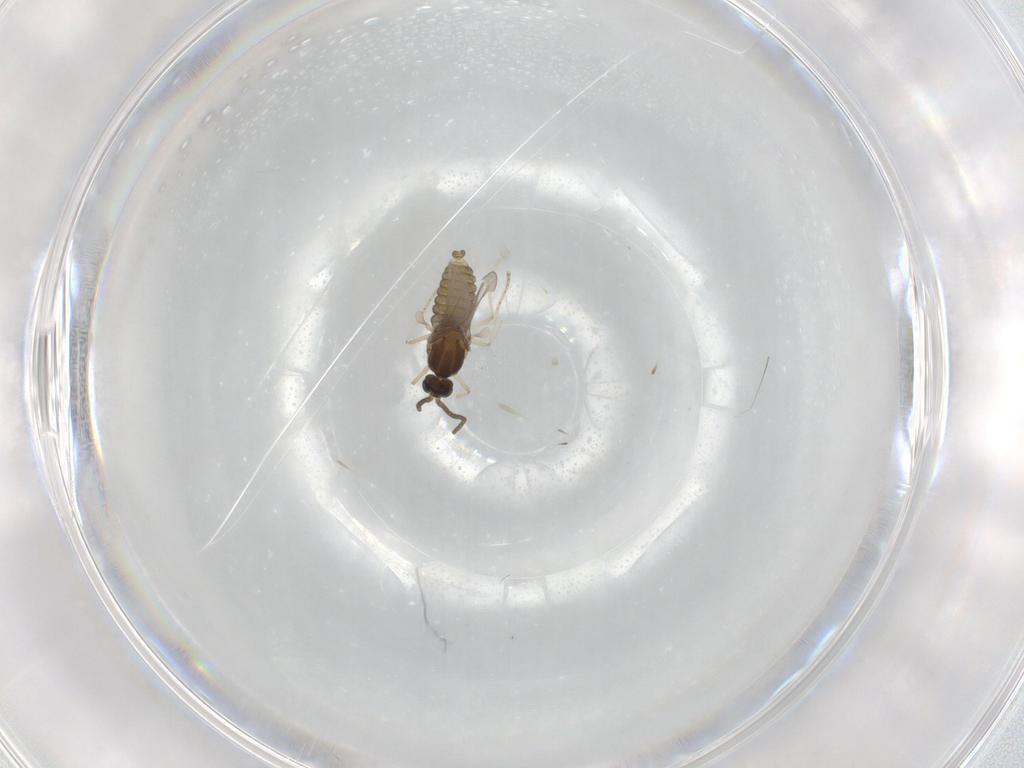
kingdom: Animalia
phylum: Arthropoda
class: Insecta
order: Diptera
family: Cecidomyiidae
